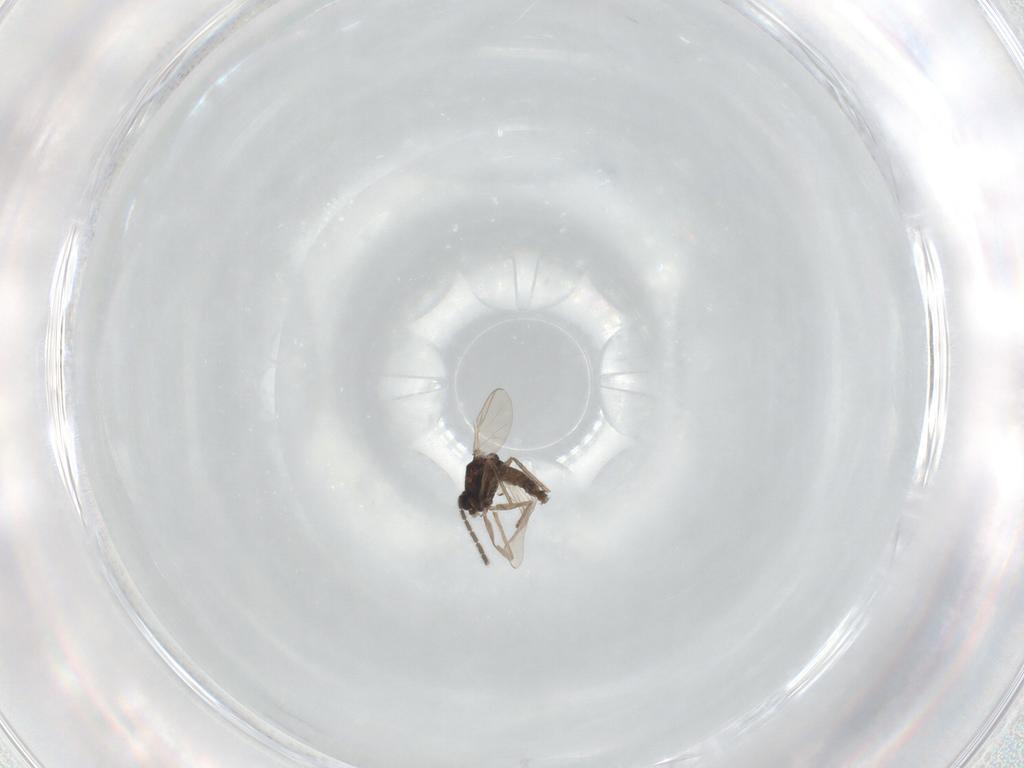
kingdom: Animalia
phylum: Arthropoda
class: Insecta
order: Diptera
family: Chironomidae
